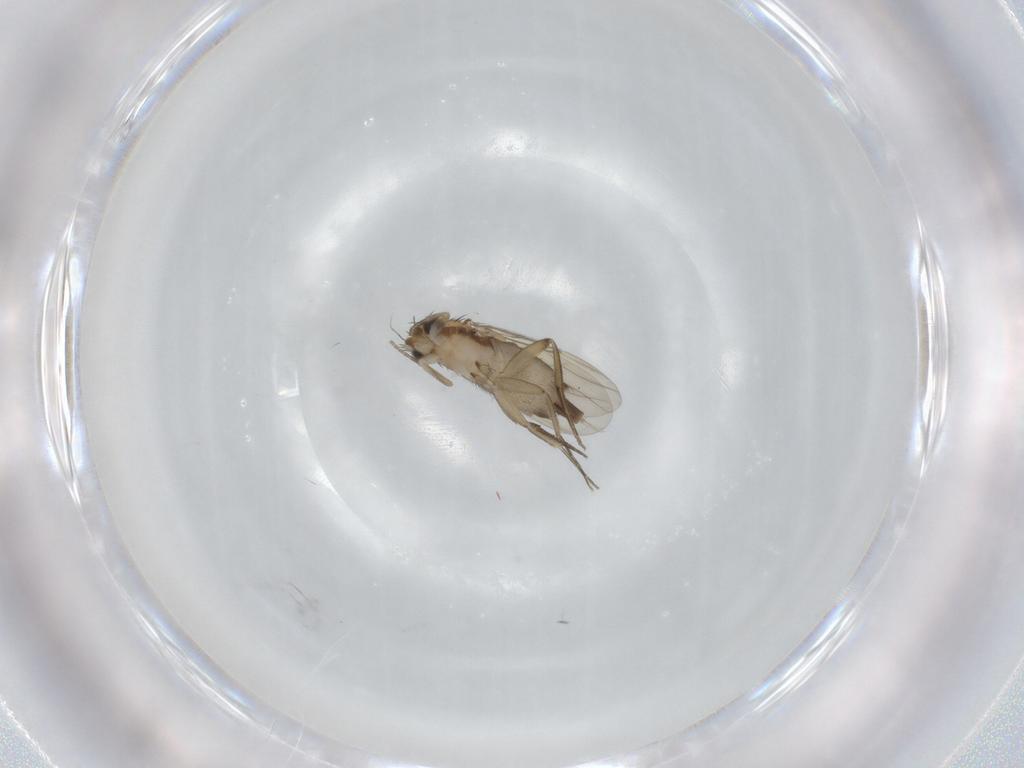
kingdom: Animalia
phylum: Arthropoda
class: Insecta
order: Diptera
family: Phoridae
